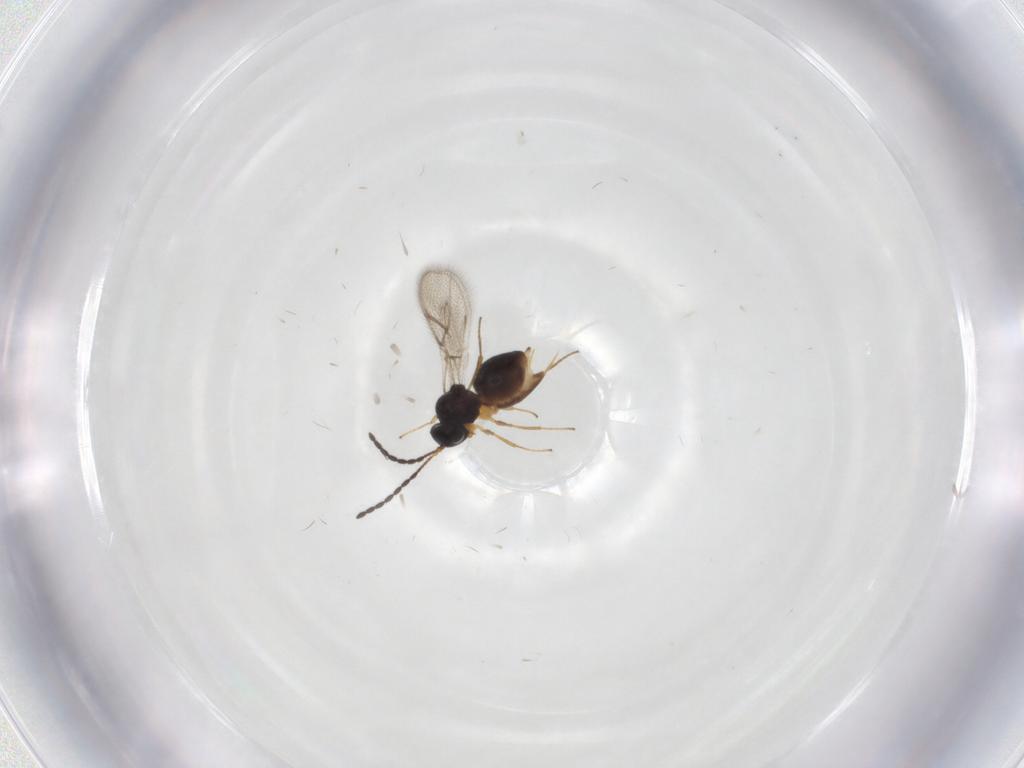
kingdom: Animalia
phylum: Arthropoda
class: Insecta
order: Hymenoptera
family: Figitidae
